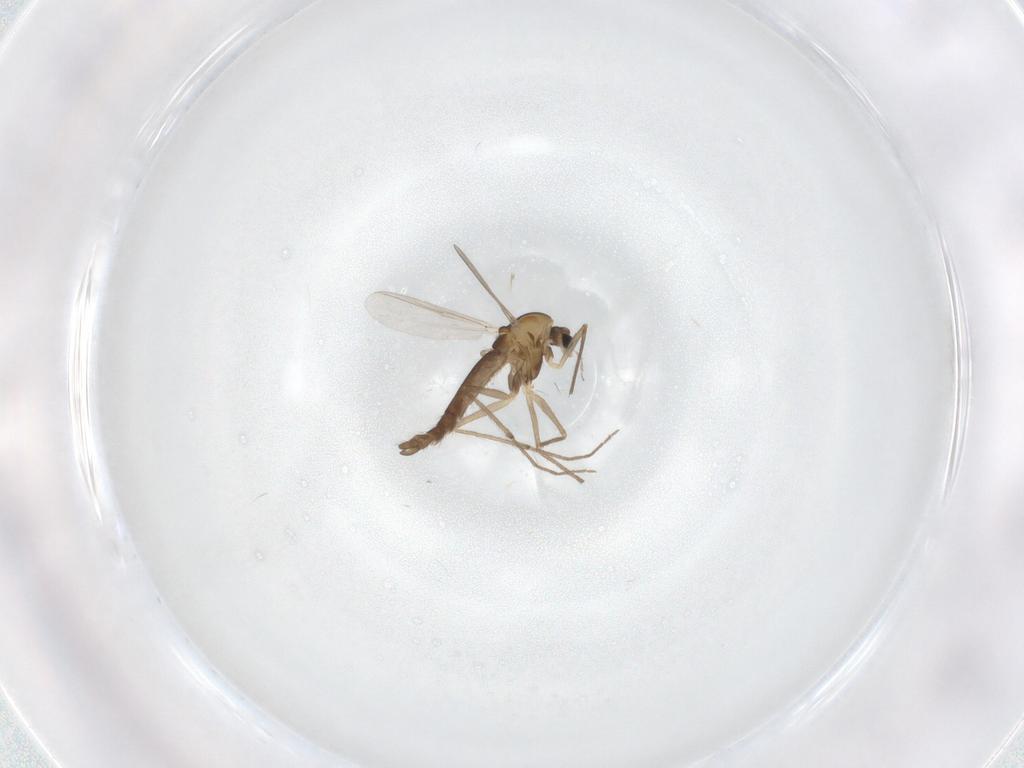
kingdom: Animalia
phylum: Arthropoda
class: Insecta
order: Diptera
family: Chironomidae
